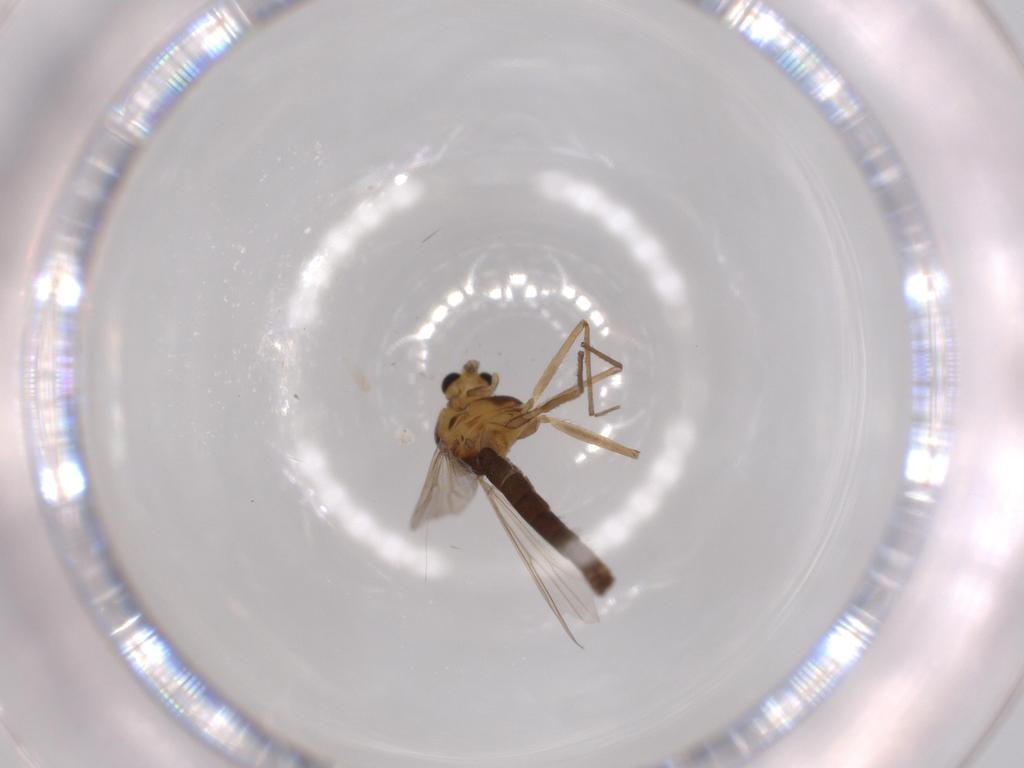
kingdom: Animalia
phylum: Arthropoda
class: Insecta
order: Diptera
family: Chironomidae
